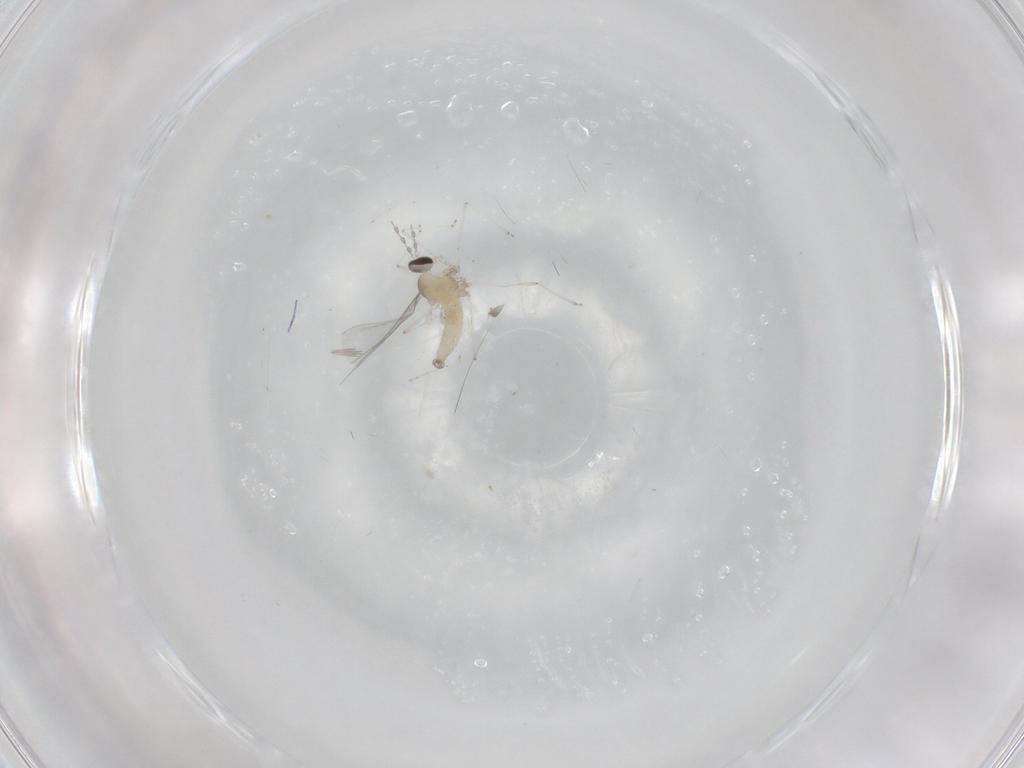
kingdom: Animalia
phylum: Arthropoda
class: Insecta
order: Diptera
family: Cecidomyiidae
